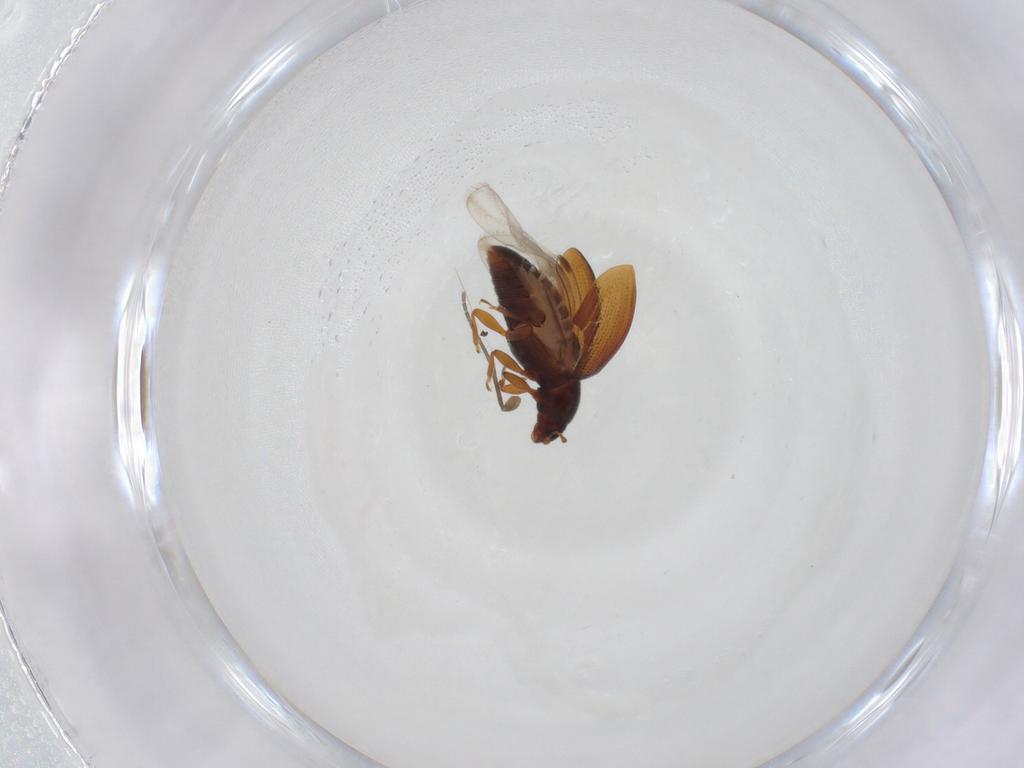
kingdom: Animalia
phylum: Arthropoda
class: Insecta
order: Coleoptera
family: Latridiidae
